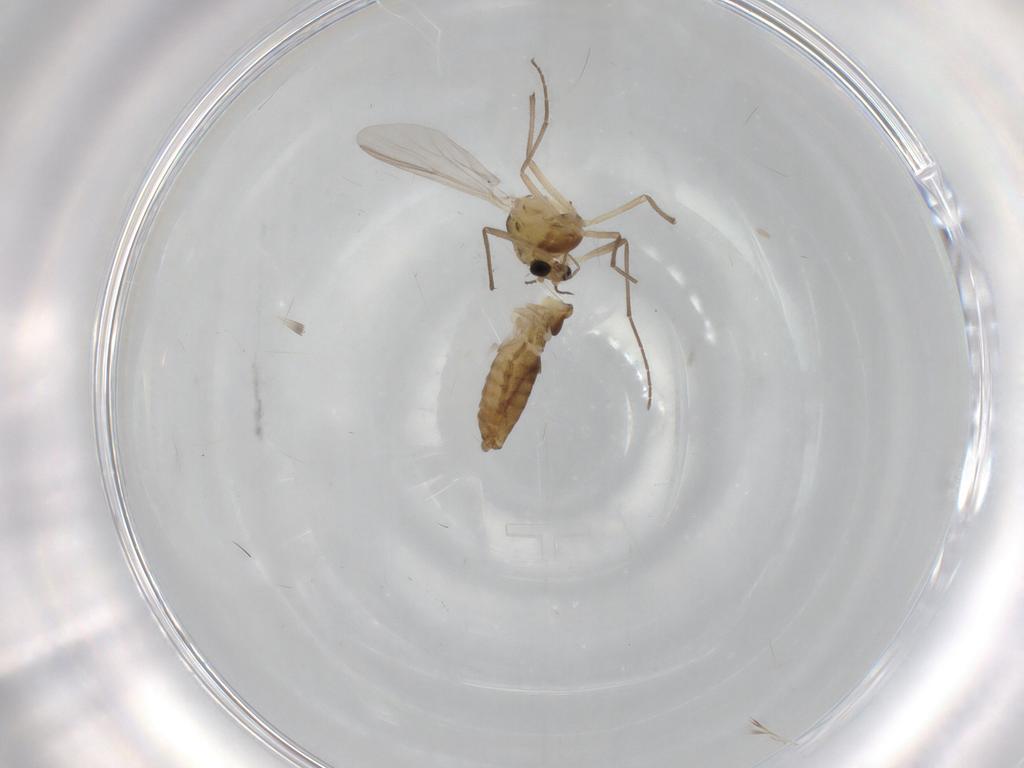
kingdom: Animalia
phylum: Arthropoda
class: Insecta
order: Diptera
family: Chironomidae
